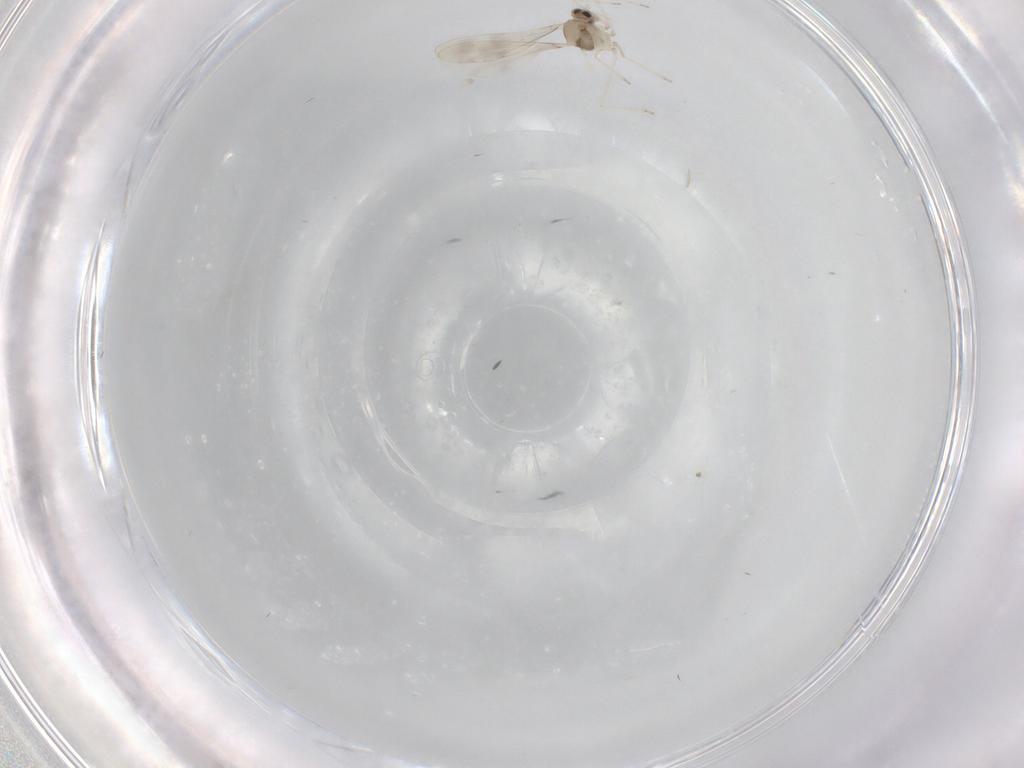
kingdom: Animalia
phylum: Arthropoda
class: Insecta
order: Diptera
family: Cecidomyiidae
